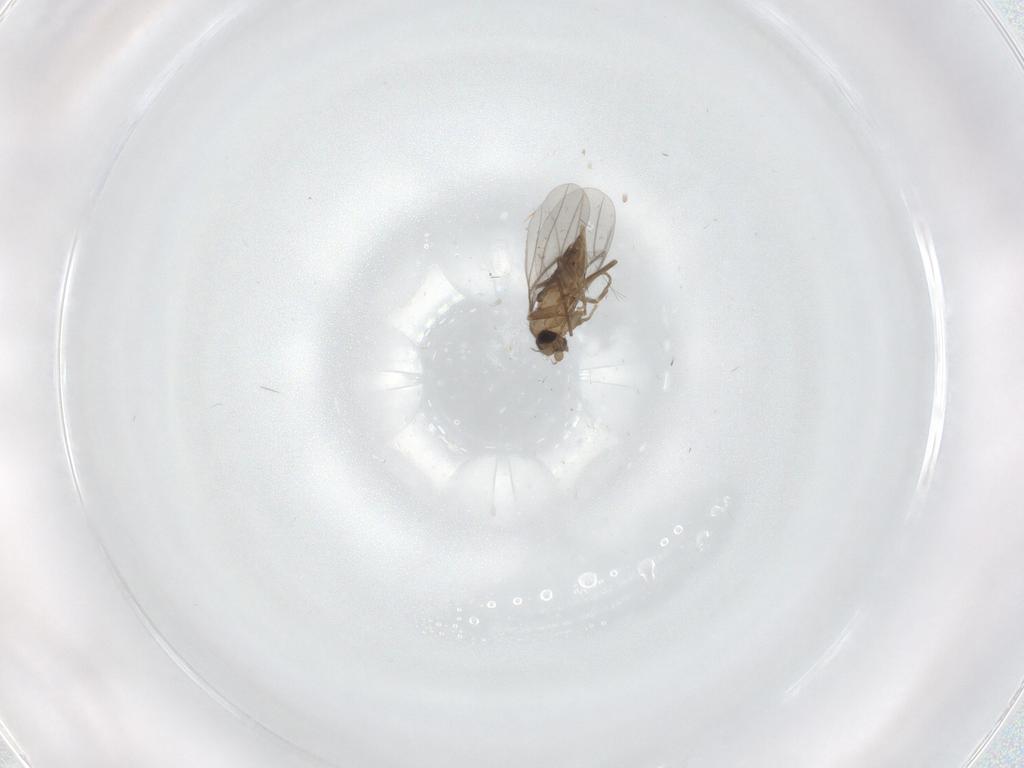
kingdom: Animalia
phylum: Arthropoda
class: Insecta
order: Diptera
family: Chironomidae
